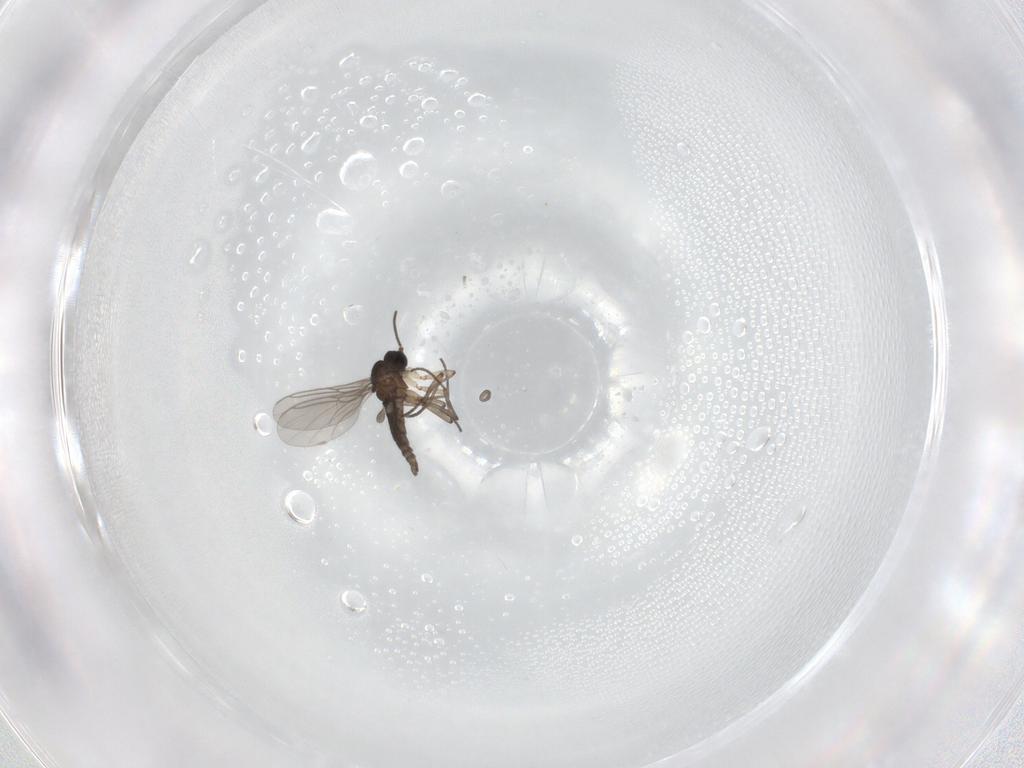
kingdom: Animalia
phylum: Arthropoda
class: Insecta
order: Diptera
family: Sciaridae
